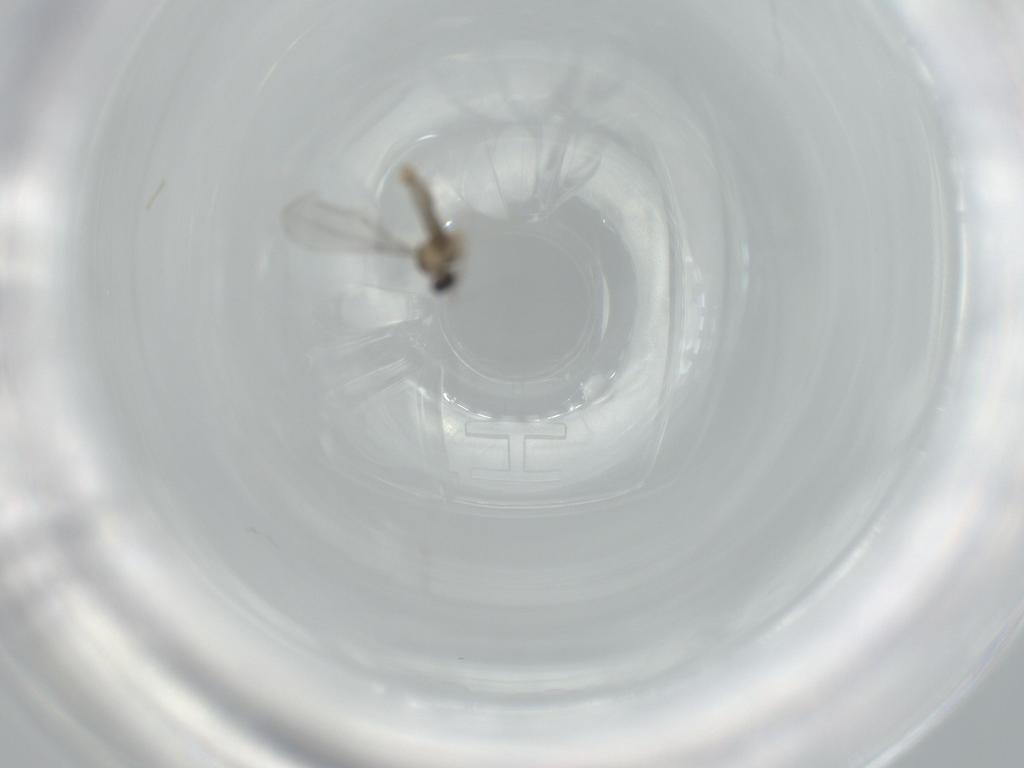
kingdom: Animalia
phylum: Arthropoda
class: Insecta
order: Diptera
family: Cecidomyiidae
